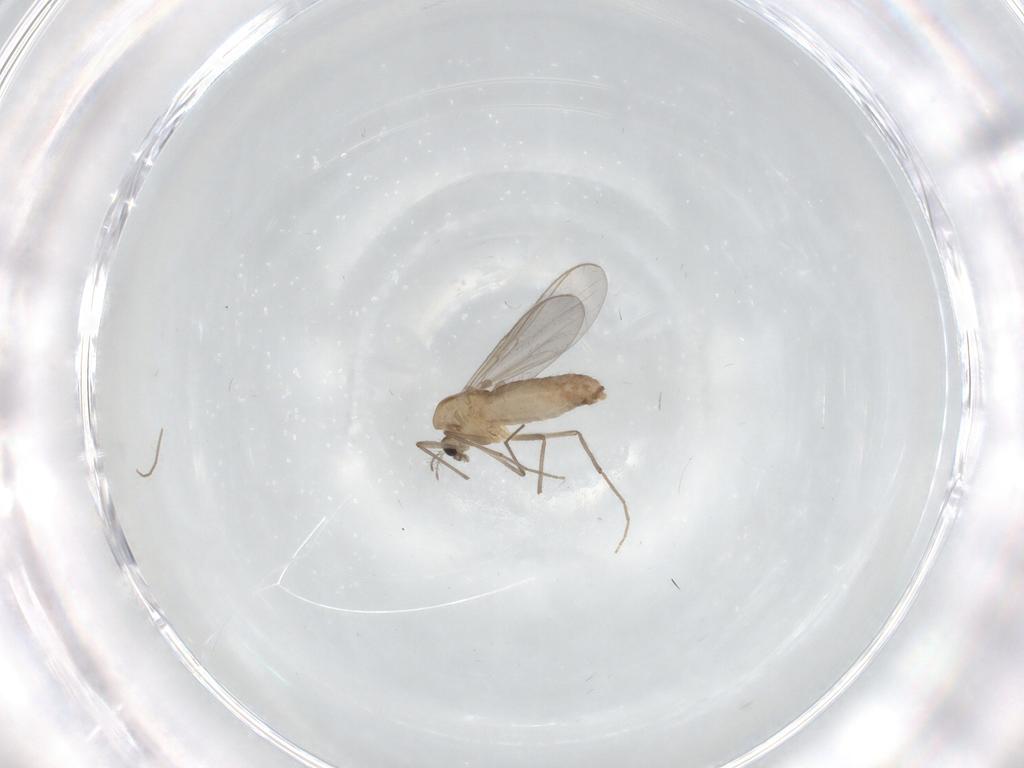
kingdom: Animalia
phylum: Arthropoda
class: Insecta
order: Diptera
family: Chironomidae
